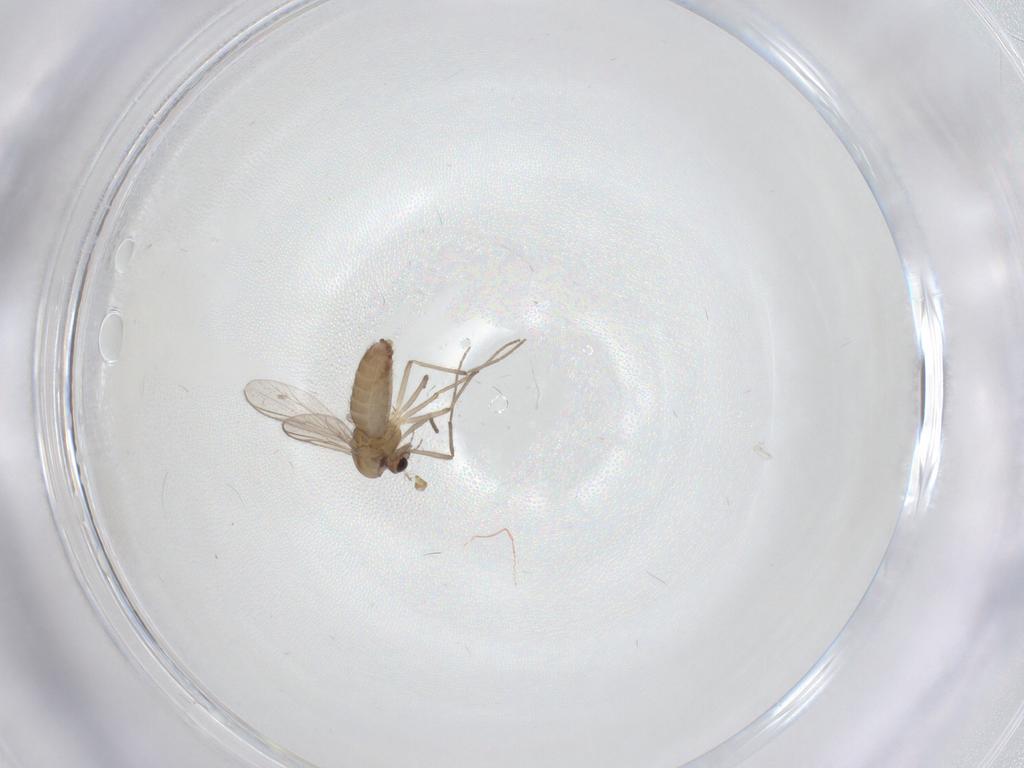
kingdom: Animalia
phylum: Arthropoda
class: Insecta
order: Diptera
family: Chironomidae
